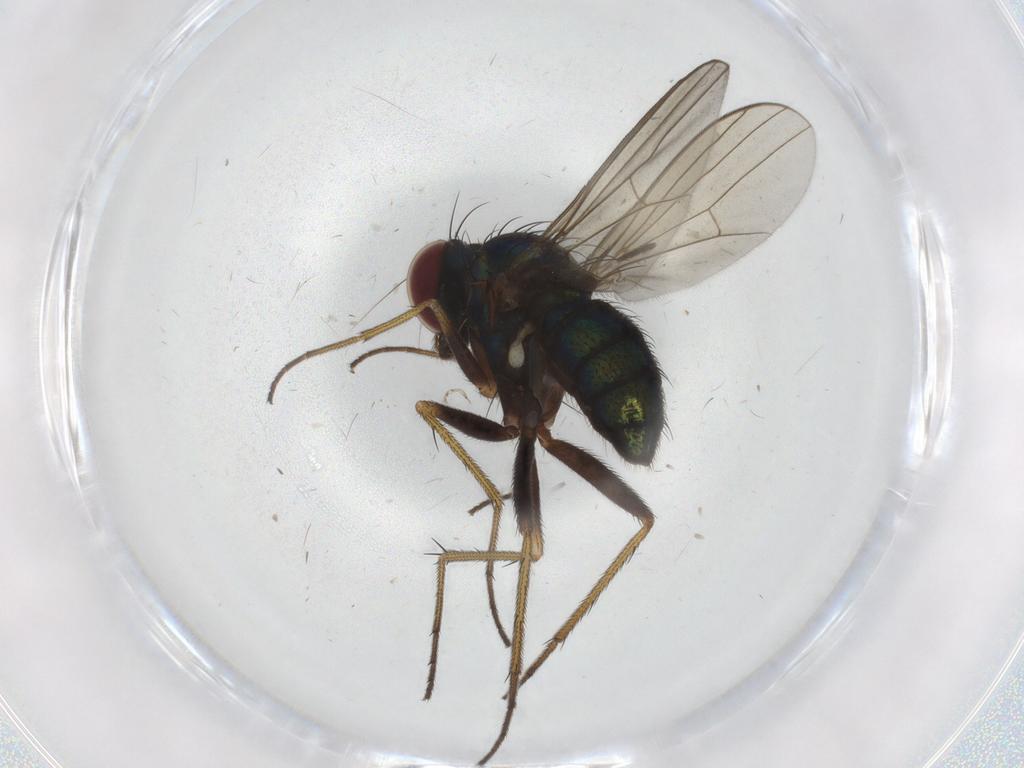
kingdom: Animalia
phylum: Arthropoda
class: Insecta
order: Diptera
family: Dolichopodidae
